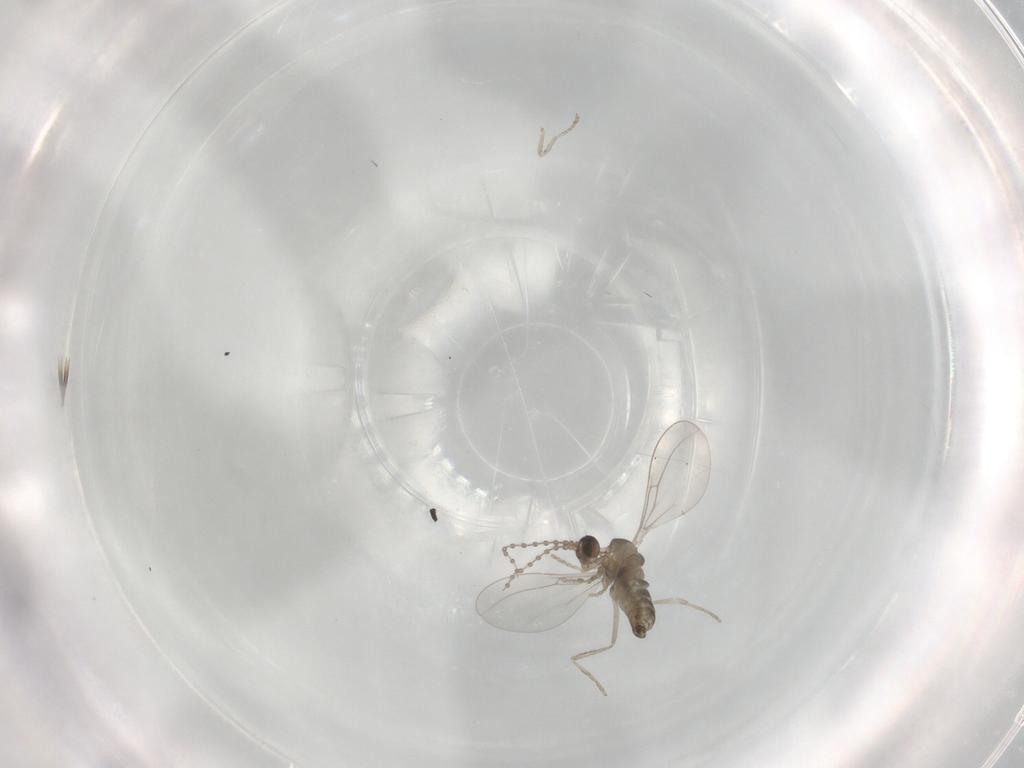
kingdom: Animalia
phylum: Arthropoda
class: Insecta
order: Diptera
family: Cecidomyiidae
